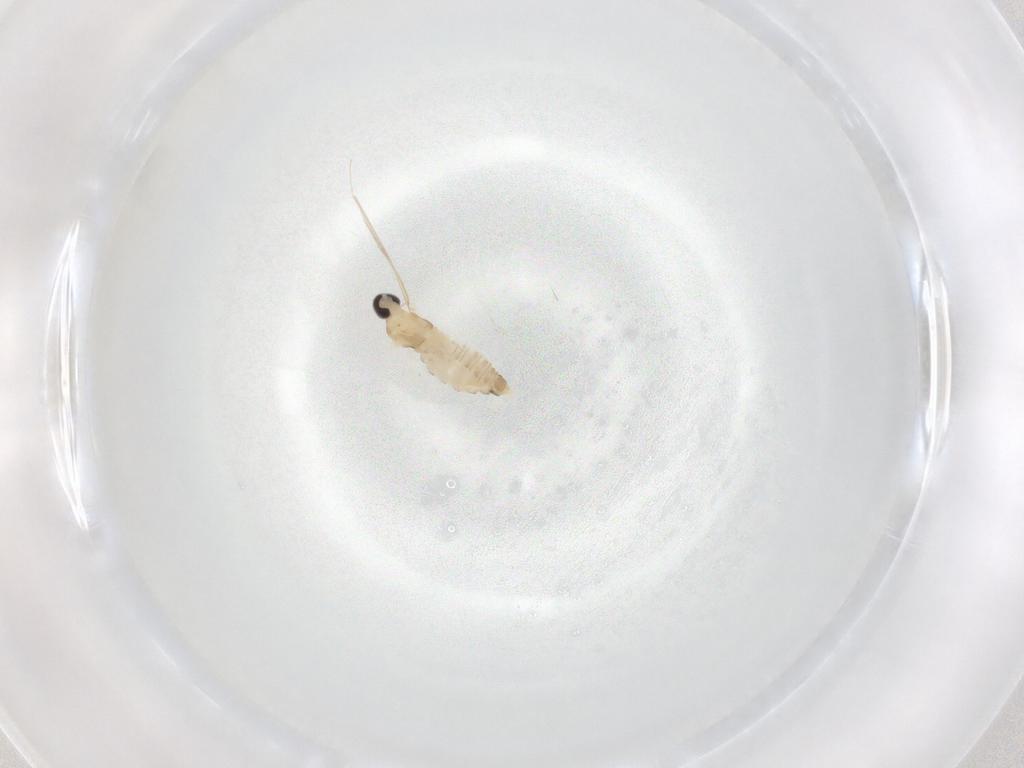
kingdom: Animalia
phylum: Arthropoda
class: Insecta
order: Diptera
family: Cecidomyiidae
